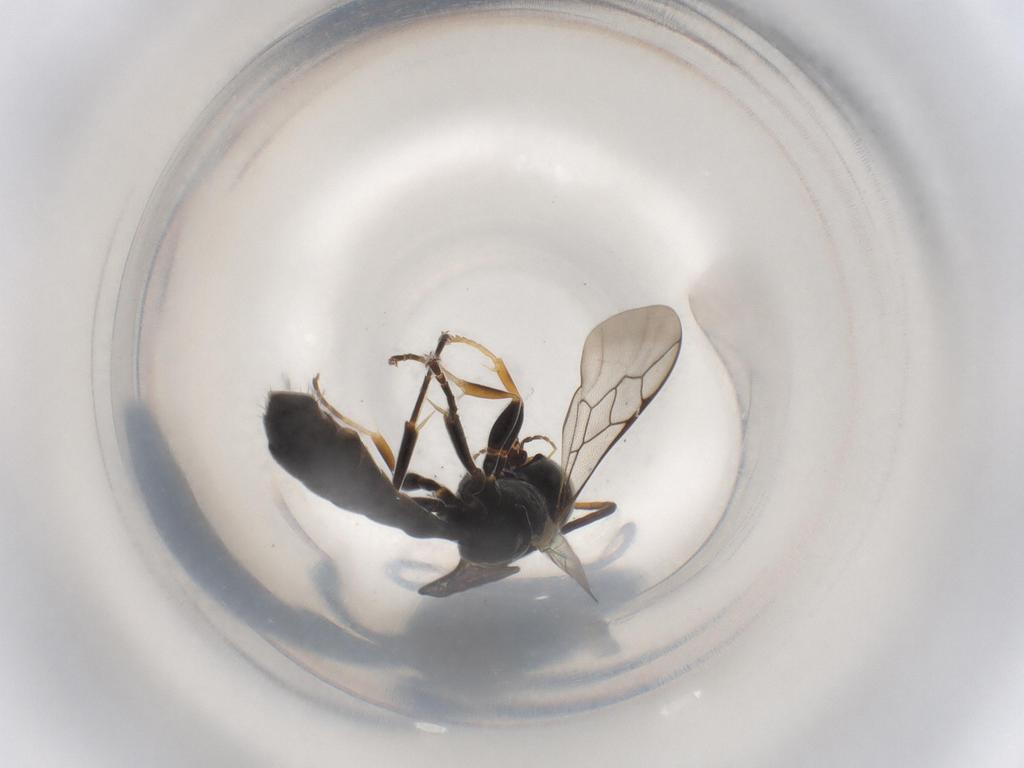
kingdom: Animalia
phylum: Arthropoda
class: Insecta
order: Hymenoptera
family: Crabronidae
